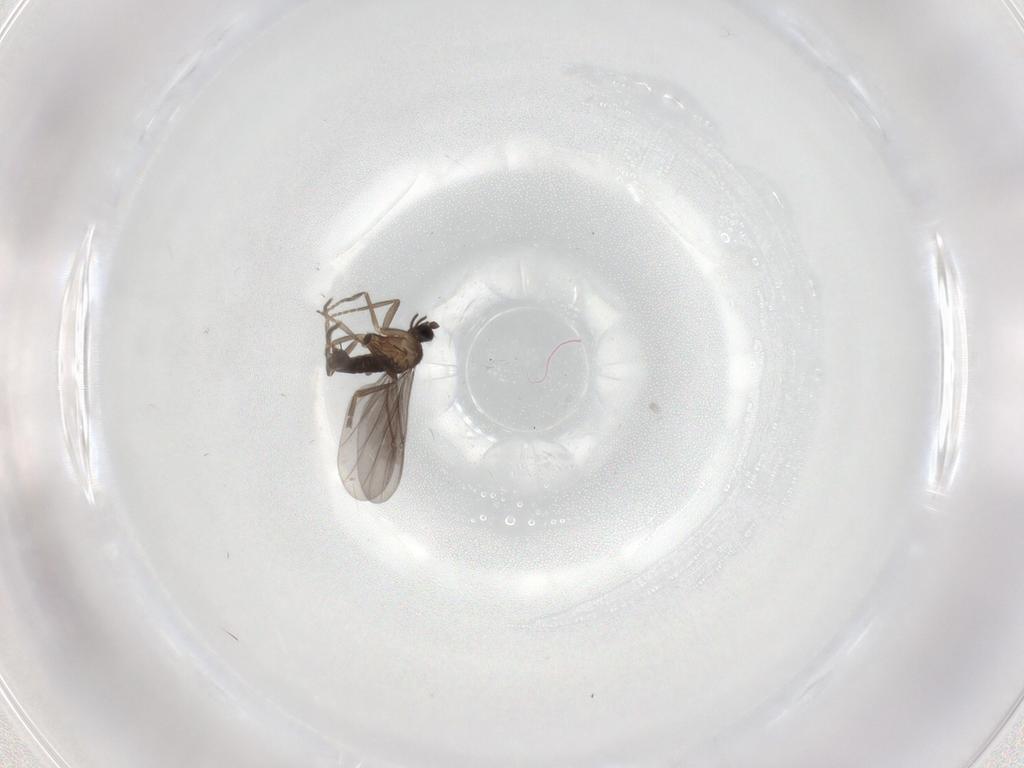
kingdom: Animalia
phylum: Arthropoda
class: Insecta
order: Diptera
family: Phoridae
